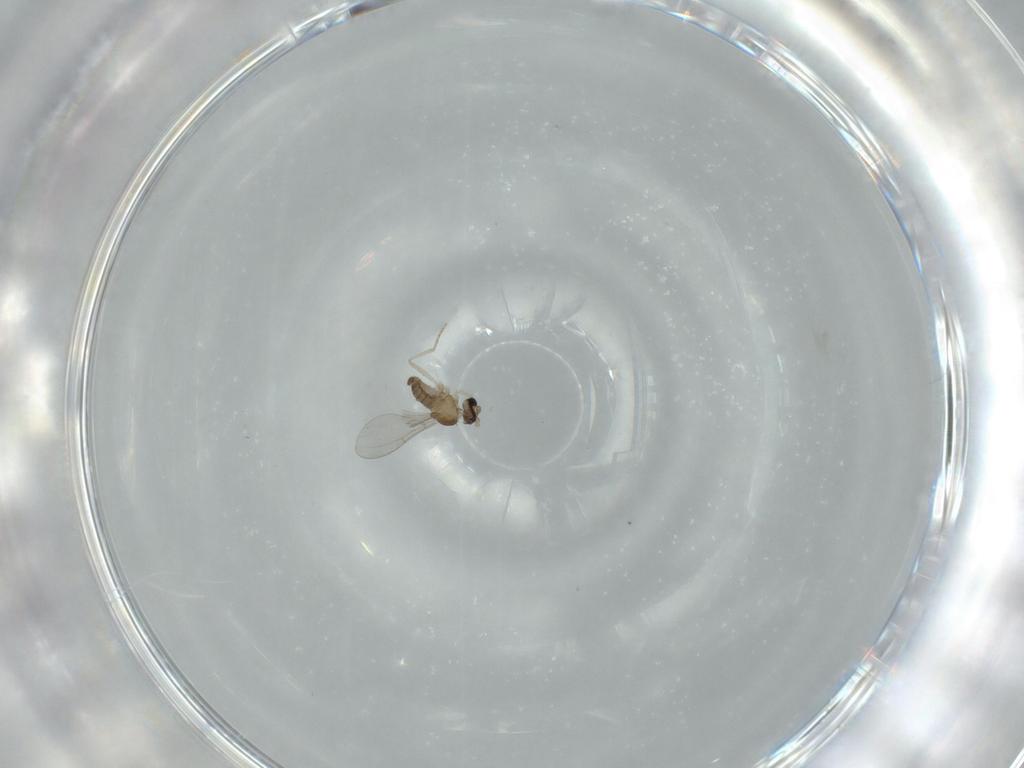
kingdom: Animalia
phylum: Arthropoda
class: Insecta
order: Diptera
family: Cecidomyiidae
